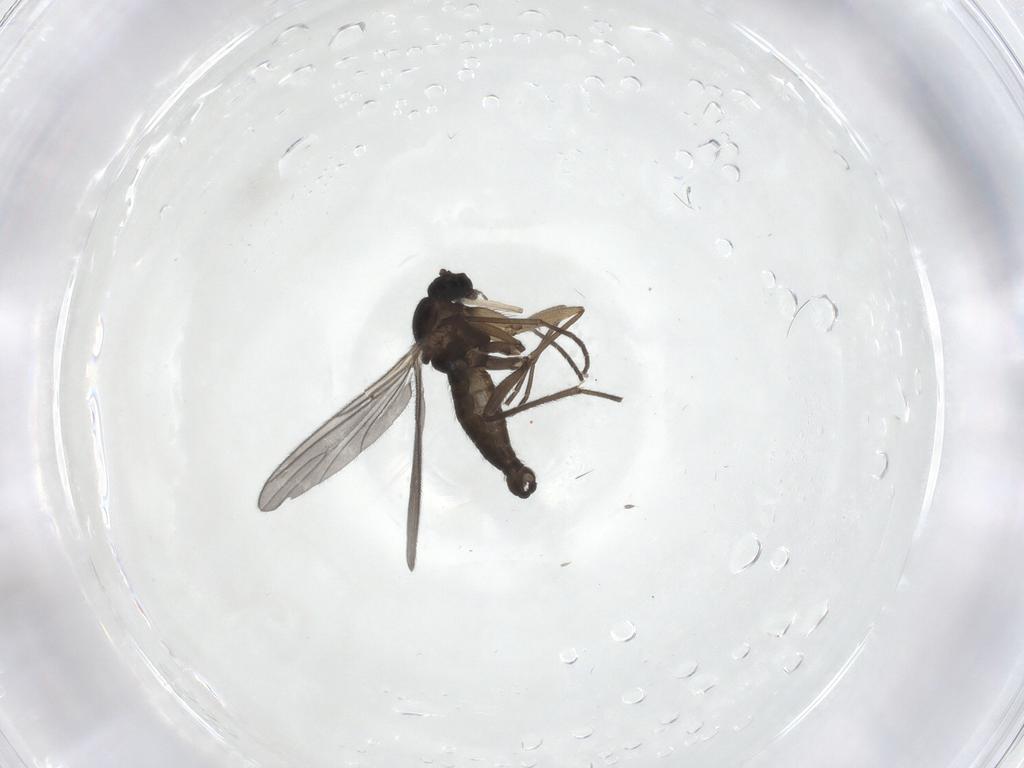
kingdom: Animalia
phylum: Arthropoda
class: Insecta
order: Diptera
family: Sciaridae
